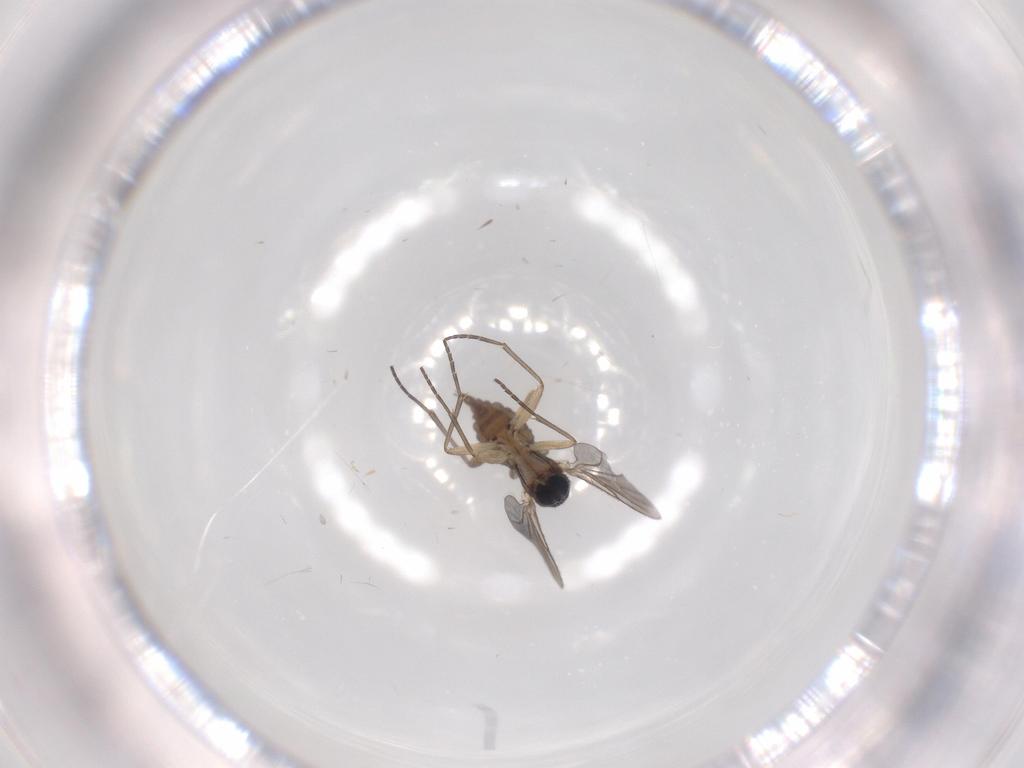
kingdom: Animalia
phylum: Arthropoda
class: Insecta
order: Diptera
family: Sciaridae
